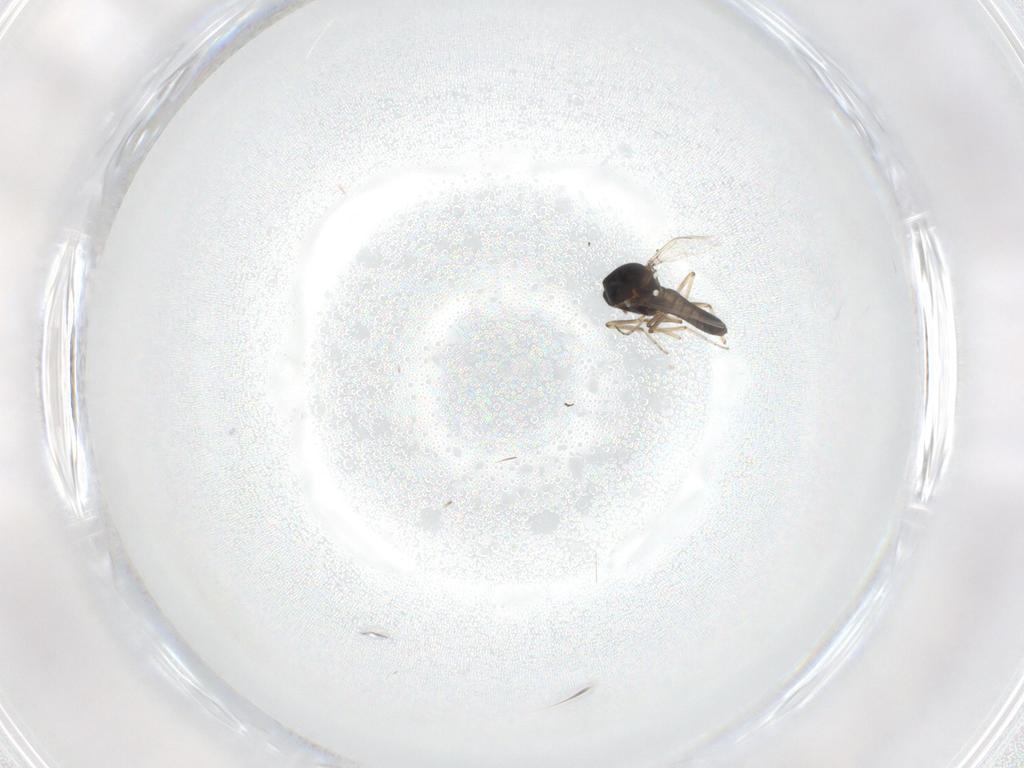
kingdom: Animalia
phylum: Arthropoda
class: Insecta
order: Diptera
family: Ceratopogonidae
